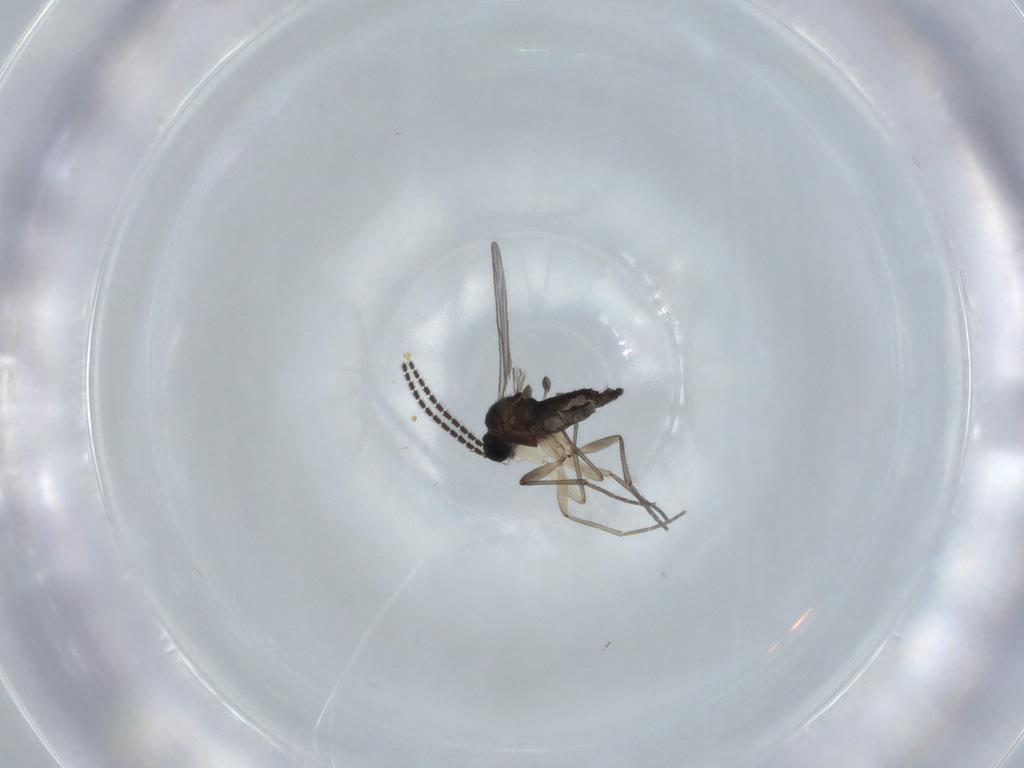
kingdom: Animalia
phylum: Arthropoda
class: Insecta
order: Diptera
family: Sciaridae
